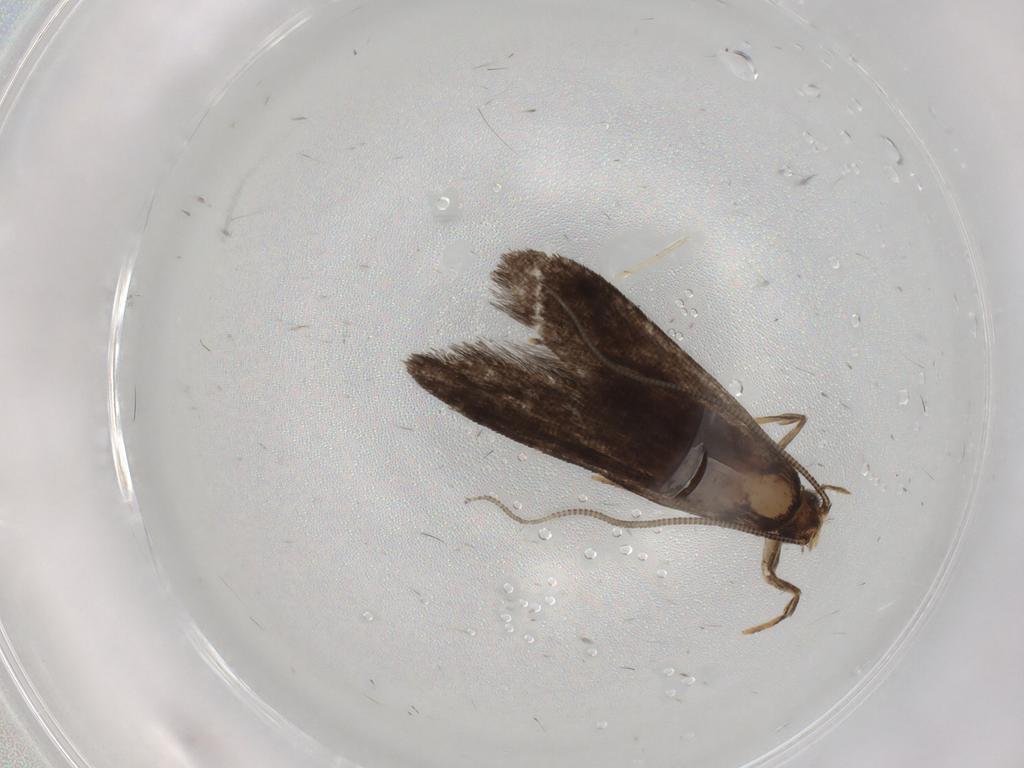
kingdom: Animalia
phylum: Arthropoda
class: Insecta
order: Lepidoptera
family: Tineidae
